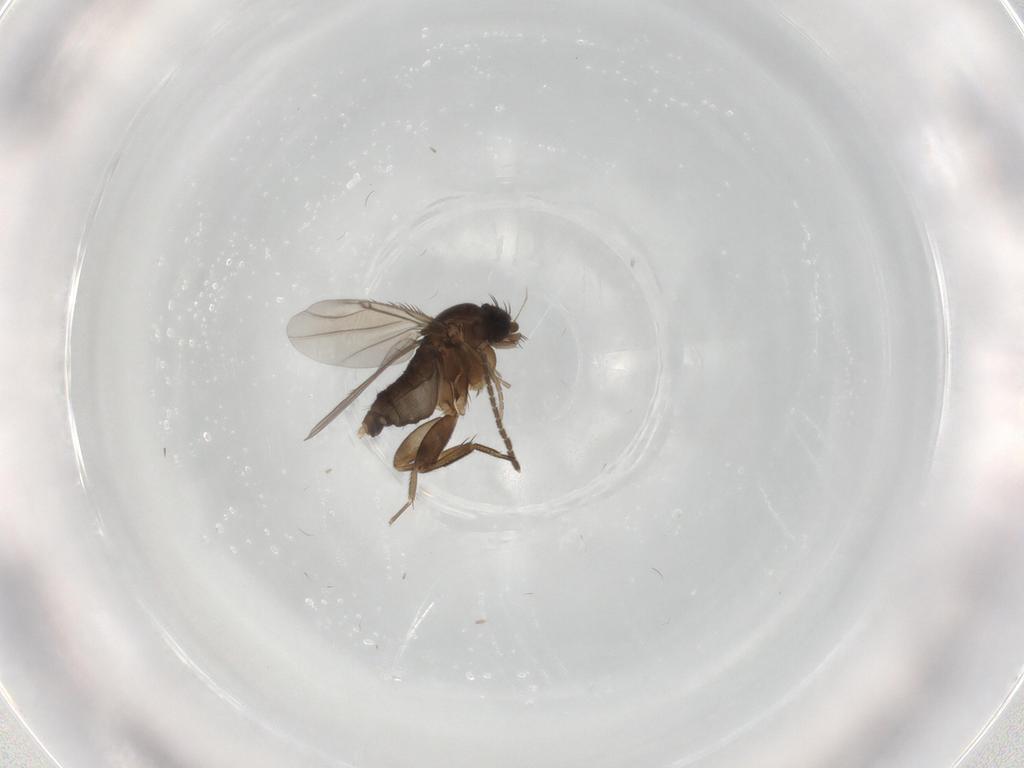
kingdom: Animalia
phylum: Arthropoda
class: Insecta
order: Diptera
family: Phoridae
